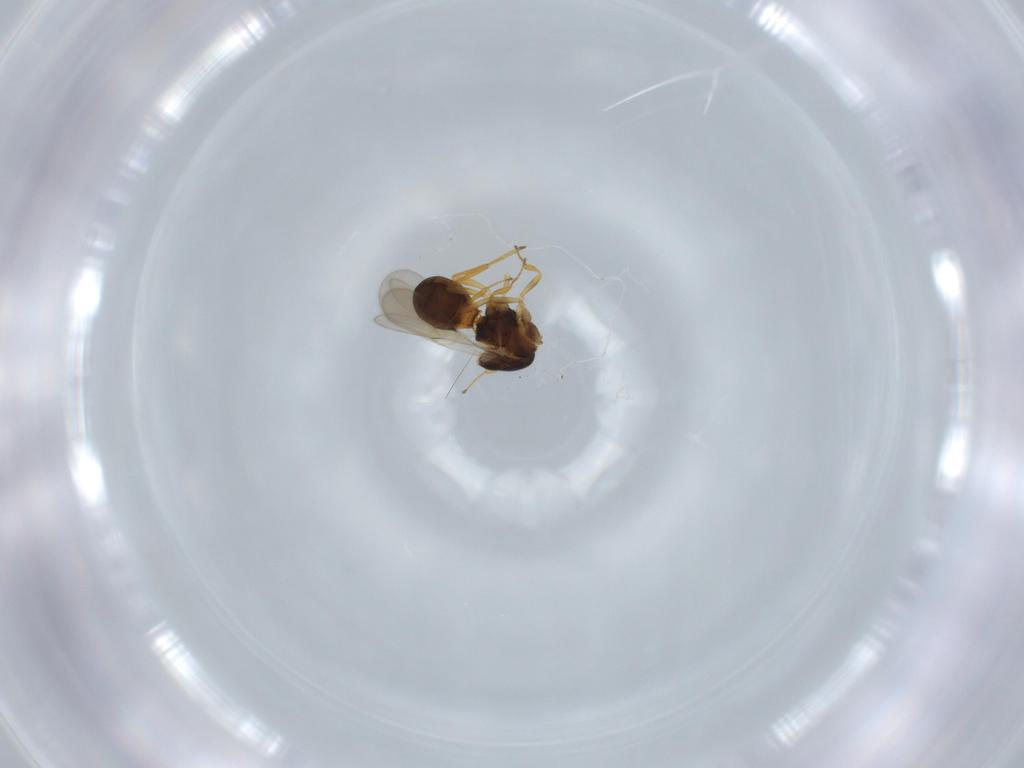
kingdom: Animalia
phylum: Arthropoda
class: Insecta
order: Hymenoptera
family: Scelionidae
